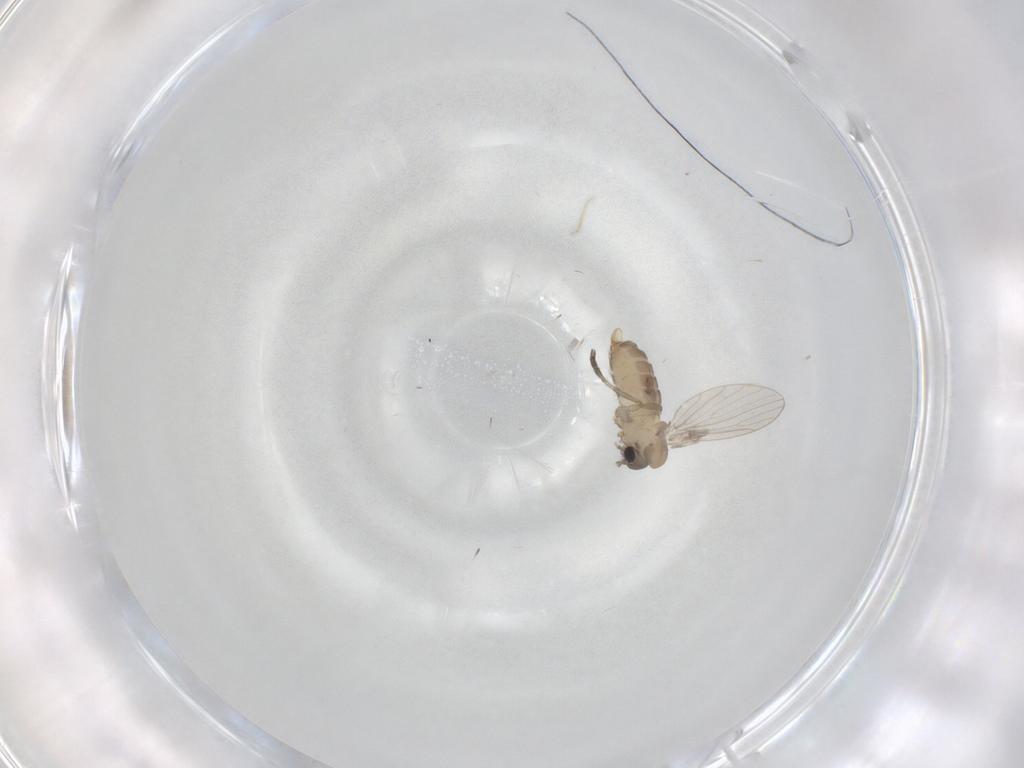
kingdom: Animalia
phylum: Arthropoda
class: Insecta
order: Diptera
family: Psychodidae
